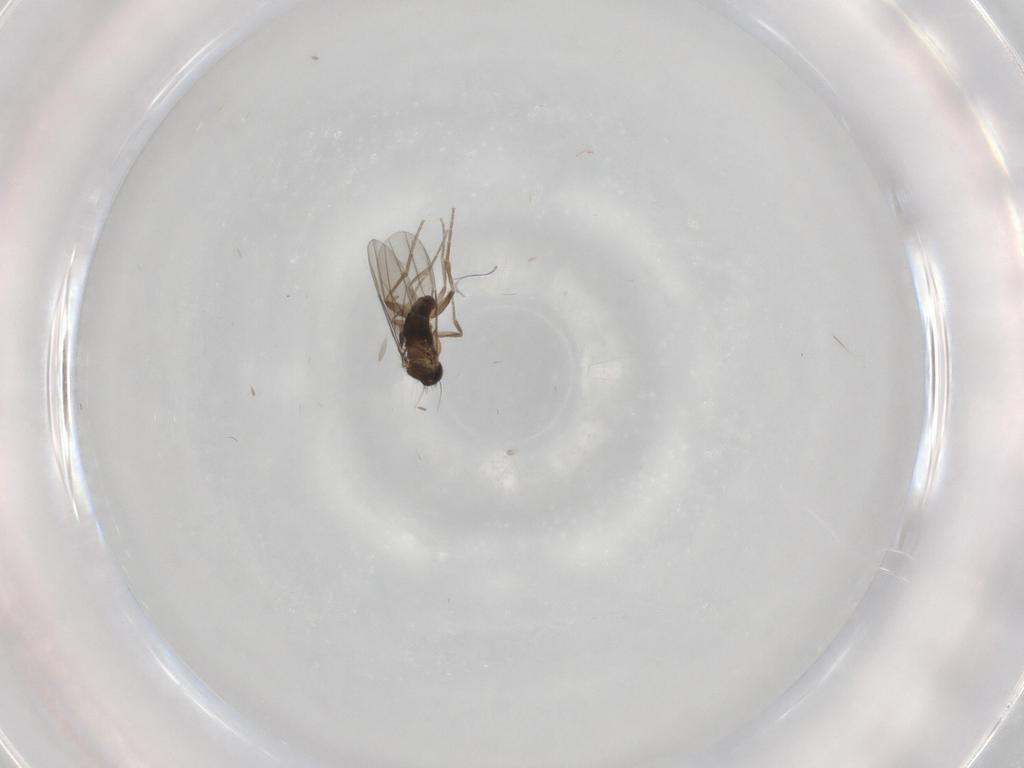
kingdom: Animalia
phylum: Arthropoda
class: Insecta
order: Diptera
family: Phoridae
